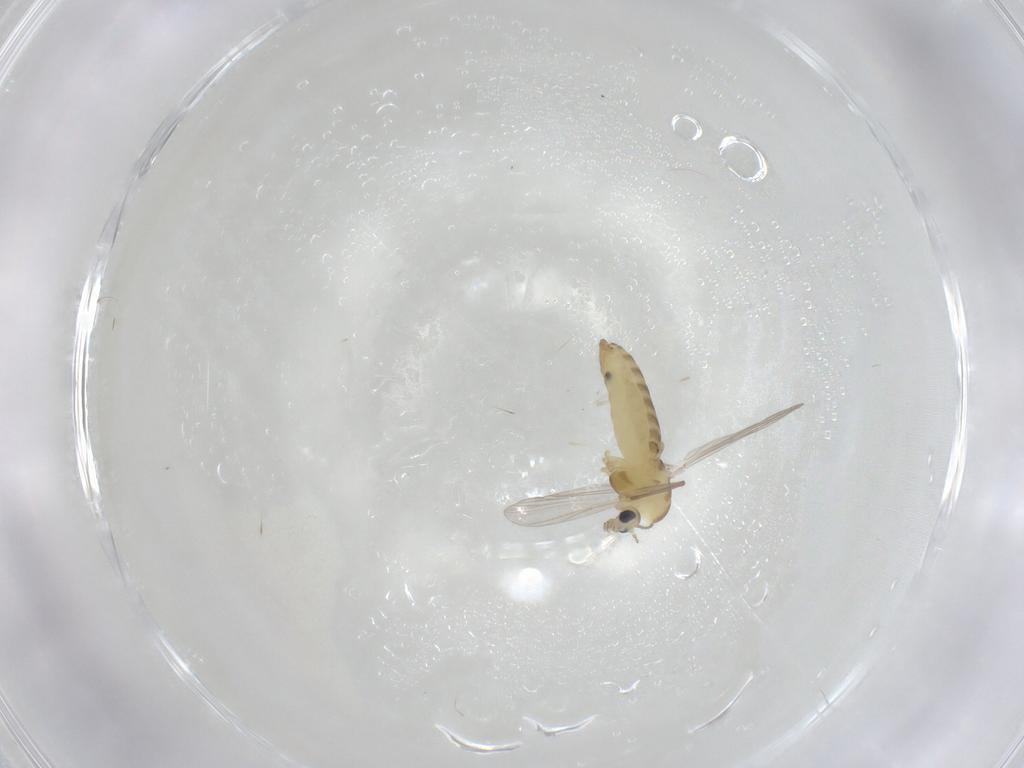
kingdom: Animalia
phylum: Arthropoda
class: Insecta
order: Diptera
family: Chironomidae
